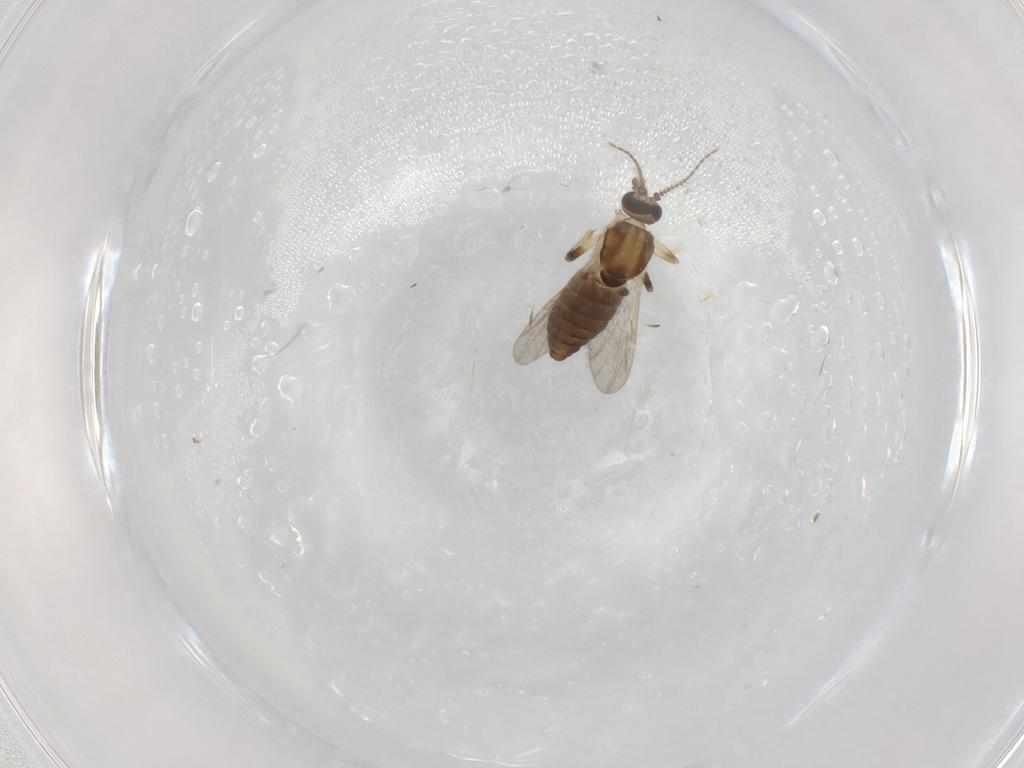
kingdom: Animalia
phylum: Arthropoda
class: Insecta
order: Diptera
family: Ceratopogonidae
